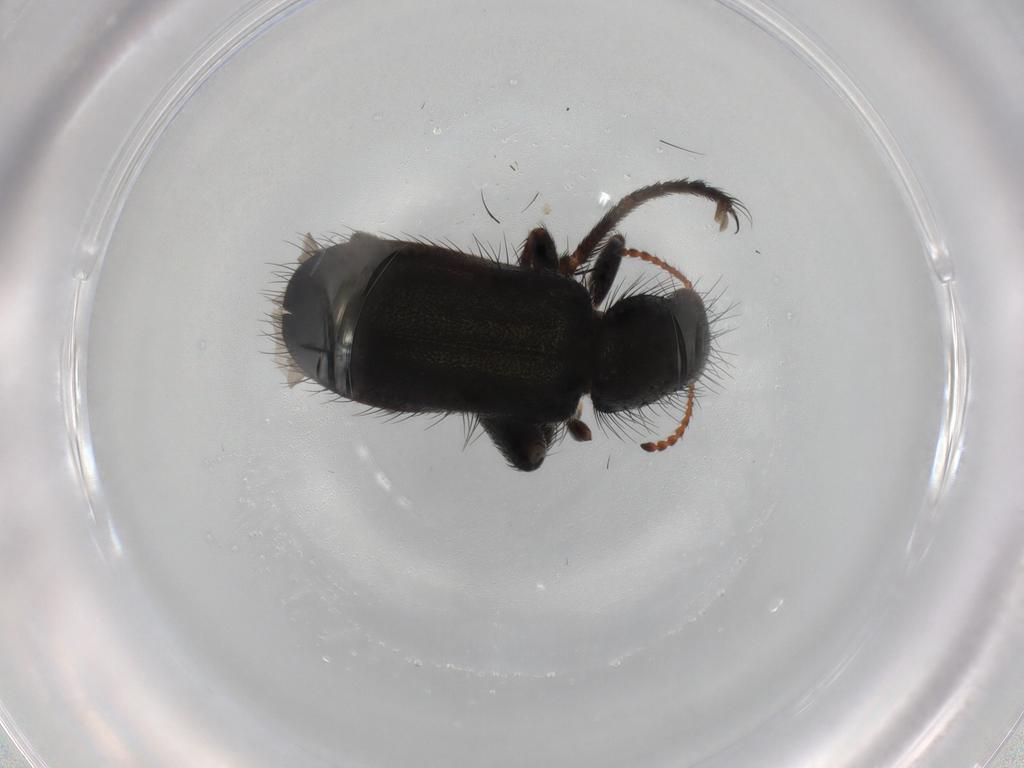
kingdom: Animalia
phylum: Arthropoda
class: Insecta
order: Coleoptera
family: Melyridae
